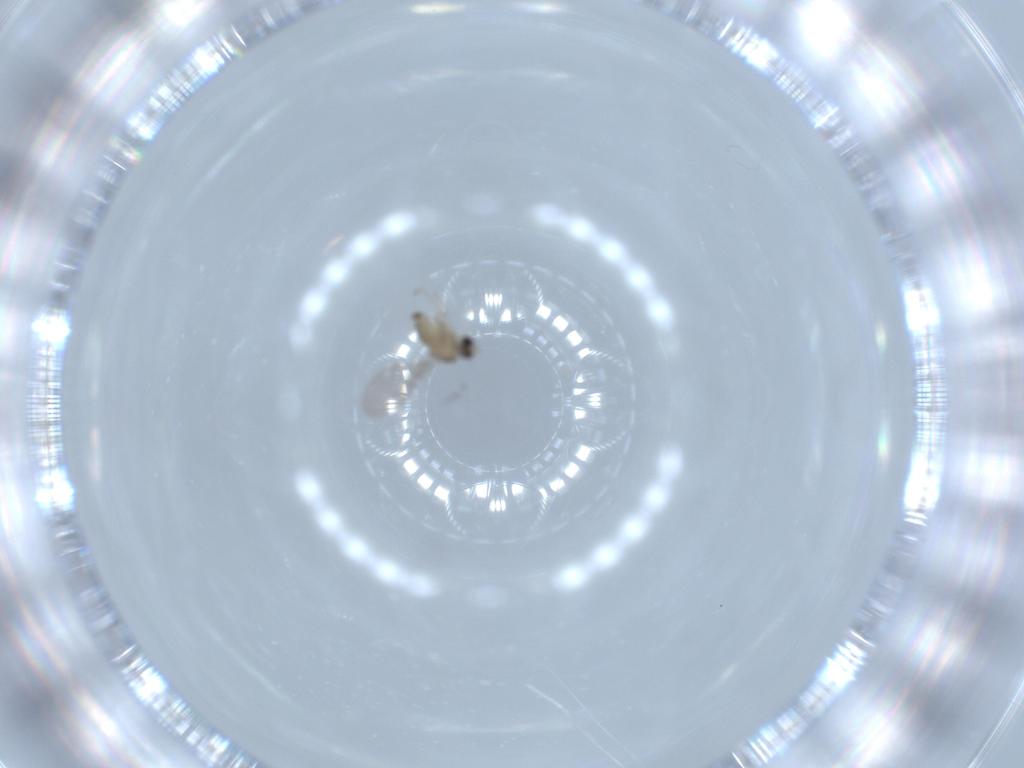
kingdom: Animalia
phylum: Arthropoda
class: Insecta
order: Diptera
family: Cecidomyiidae
